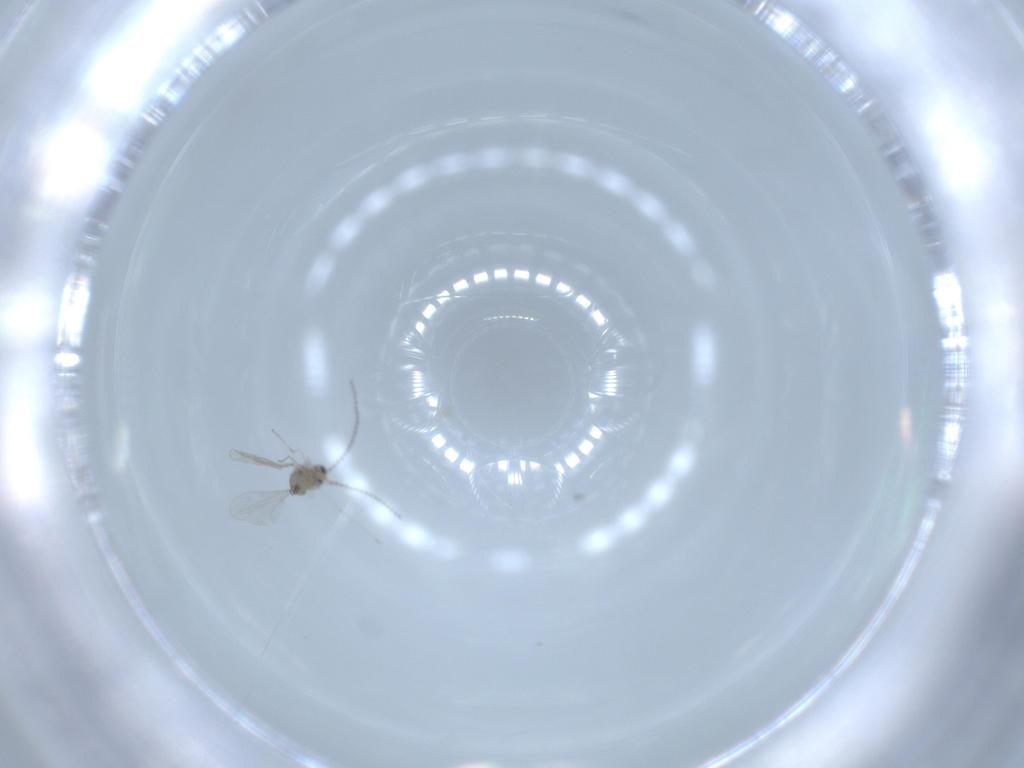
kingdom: Animalia
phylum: Arthropoda
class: Insecta
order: Diptera
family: Cecidomyiidae
